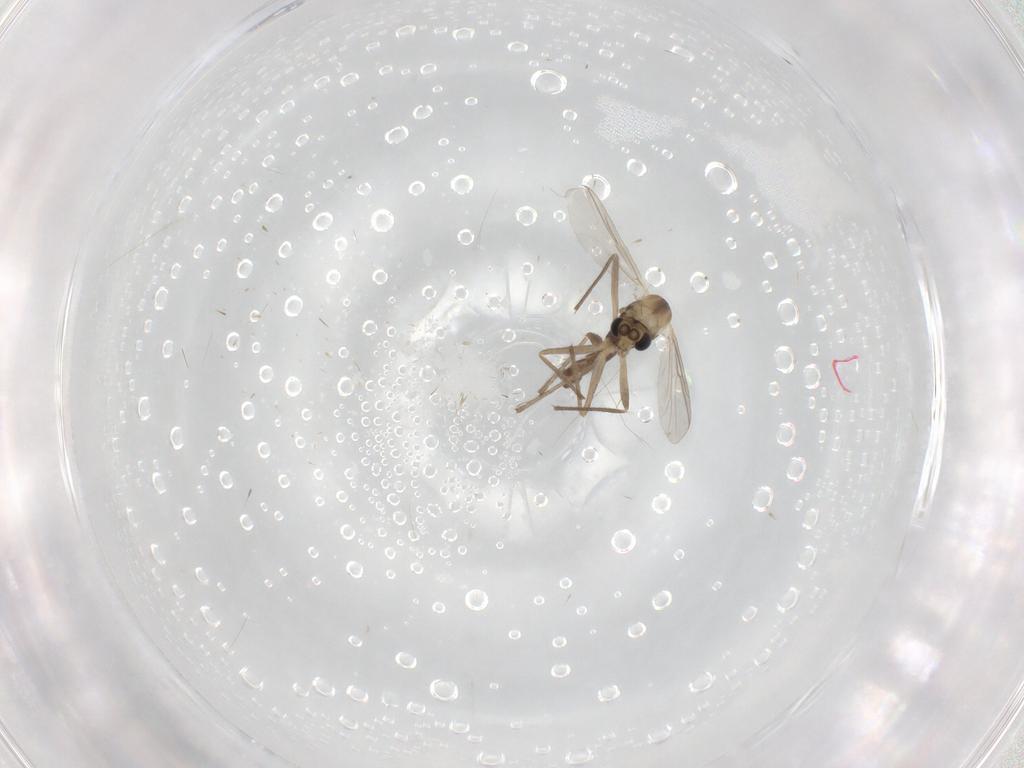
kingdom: Animalia
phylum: Arthropoda
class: Insecta
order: Diptera
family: Chironomidae
